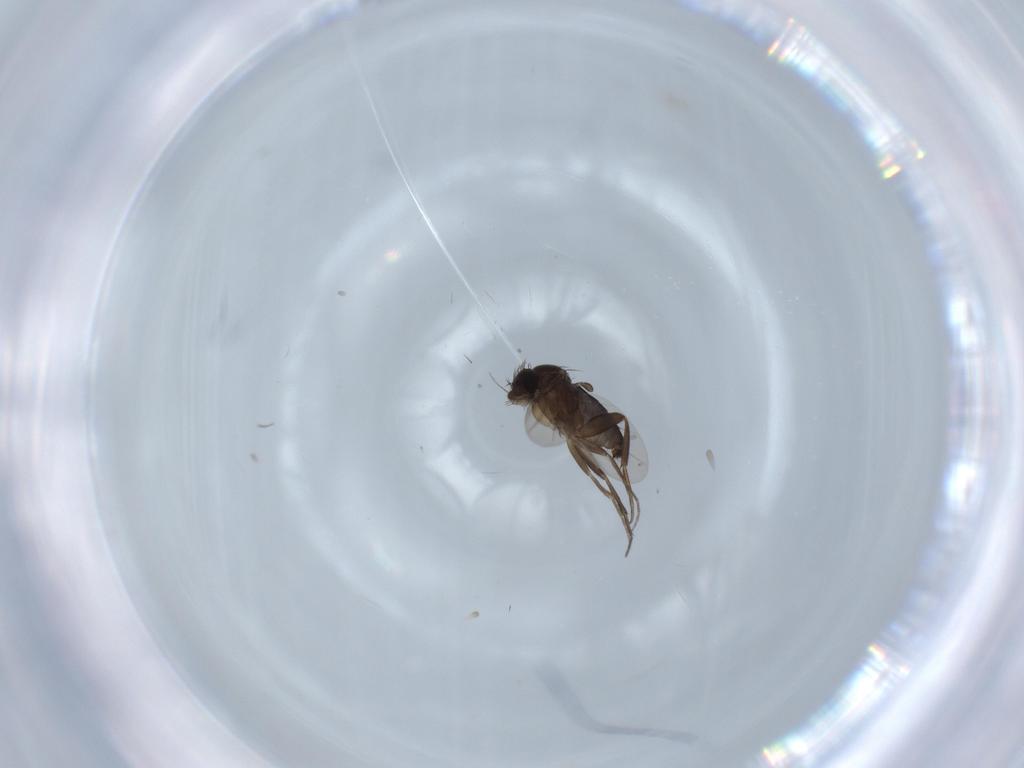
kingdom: Animalia
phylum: Arthropoda
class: Insecta
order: Diptera
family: Phoridae
